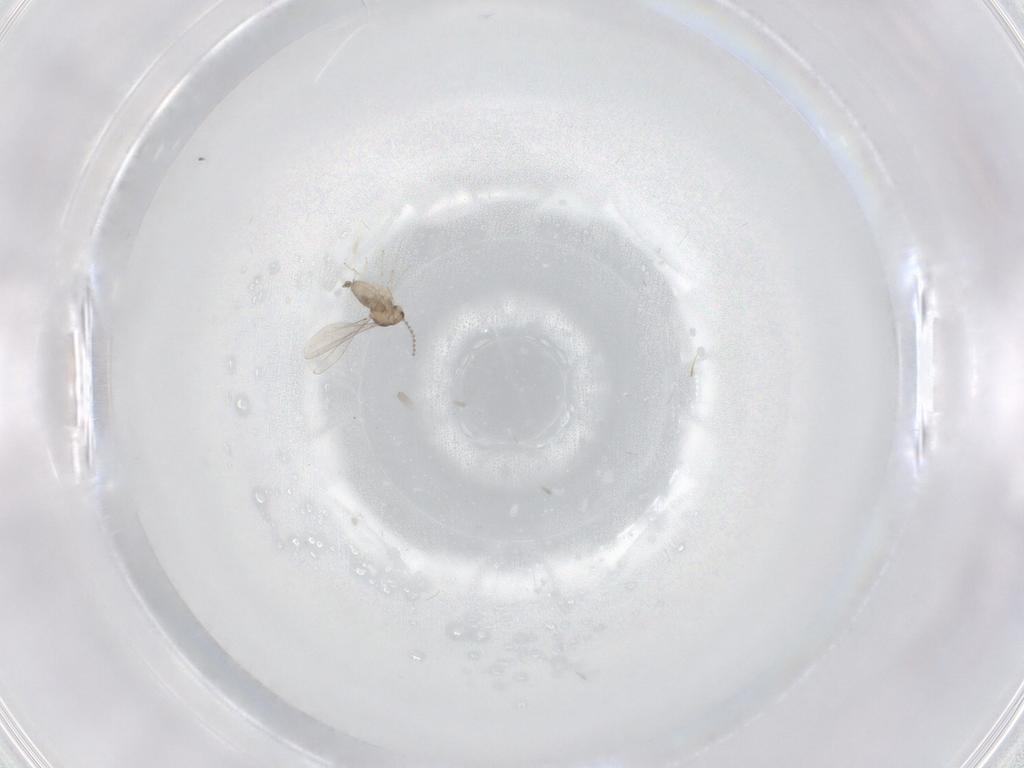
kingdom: Animalia
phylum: Arthropoda
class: Insecta
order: Diptera
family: Cecidomyiidae
